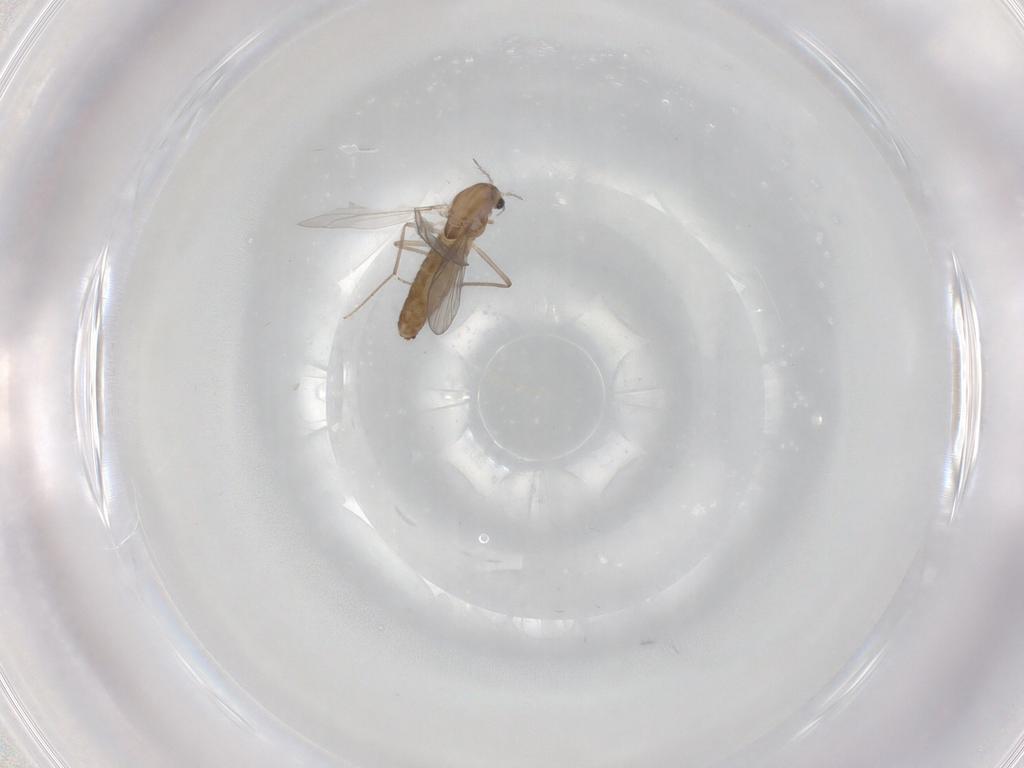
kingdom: Animalia
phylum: Arthropoda
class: Insecta
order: Diptera
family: Chironomidae
